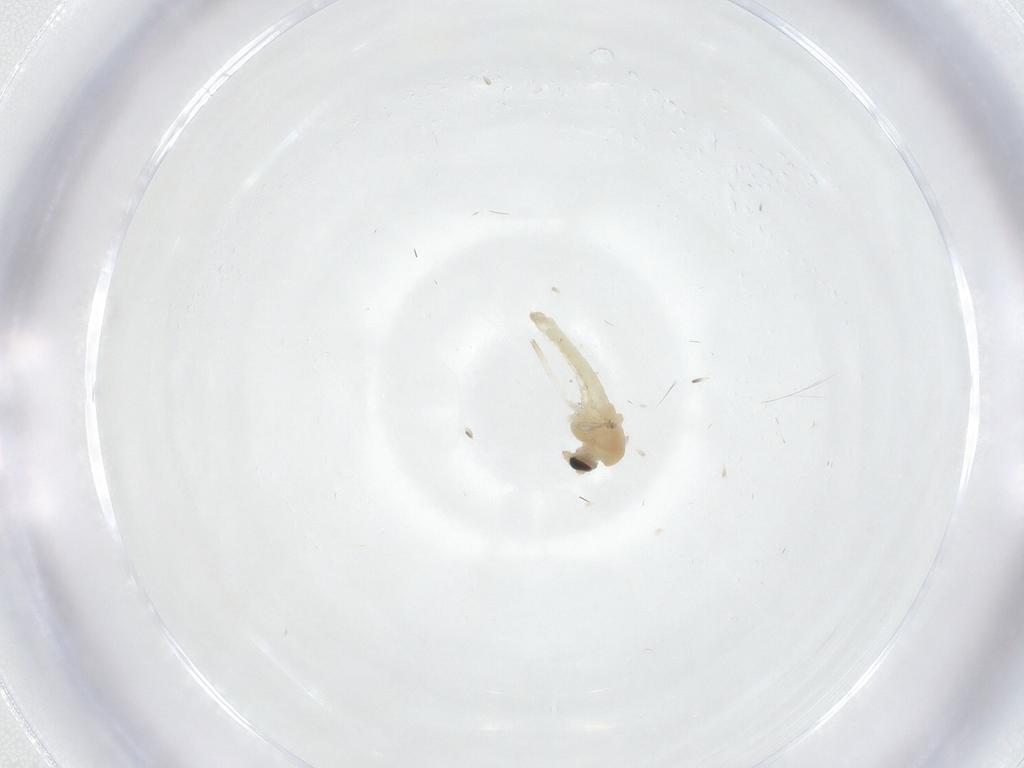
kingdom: Animalia
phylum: Arthropoda
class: Insecta
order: Diptera
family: Chironomidae
